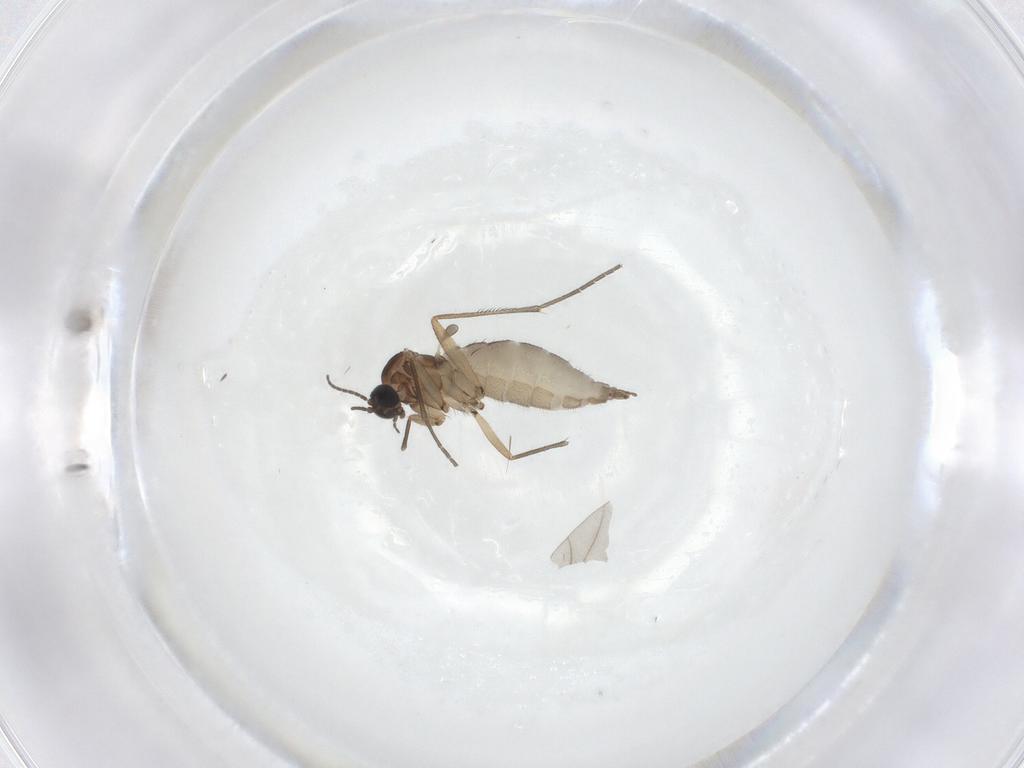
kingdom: Animalia
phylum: Arthropoda
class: Insecta
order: Diptera
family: Sciaridae
